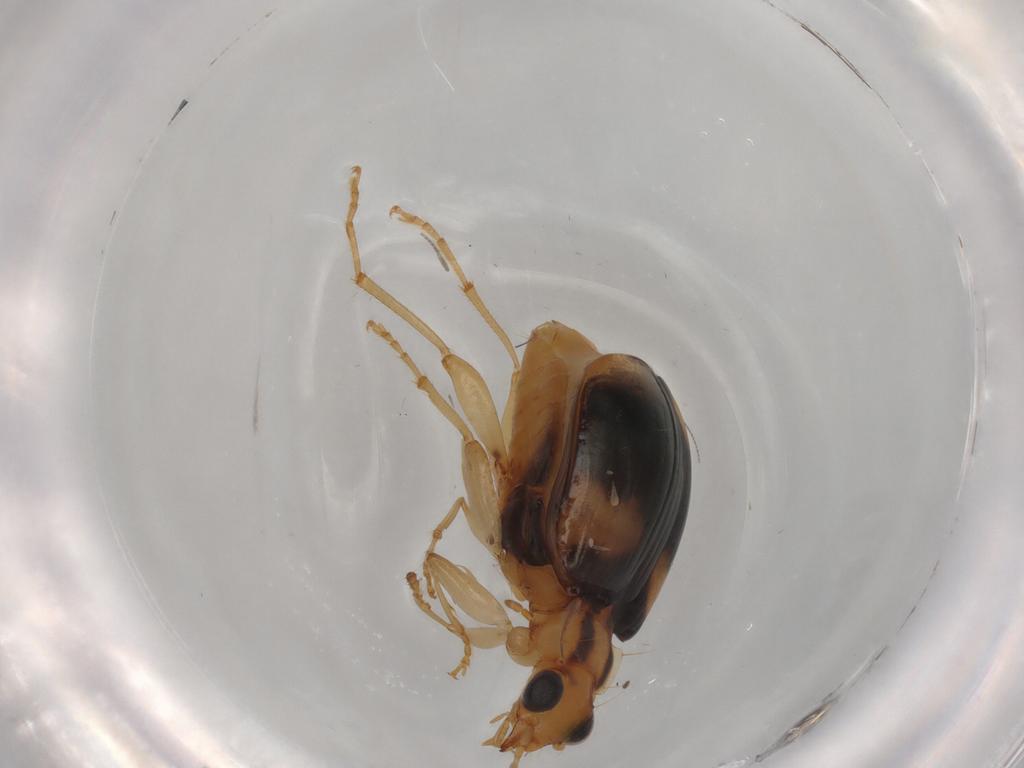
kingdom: Animalia
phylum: Arthropoda
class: Insecta
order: Coleoptera
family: Carabidae
